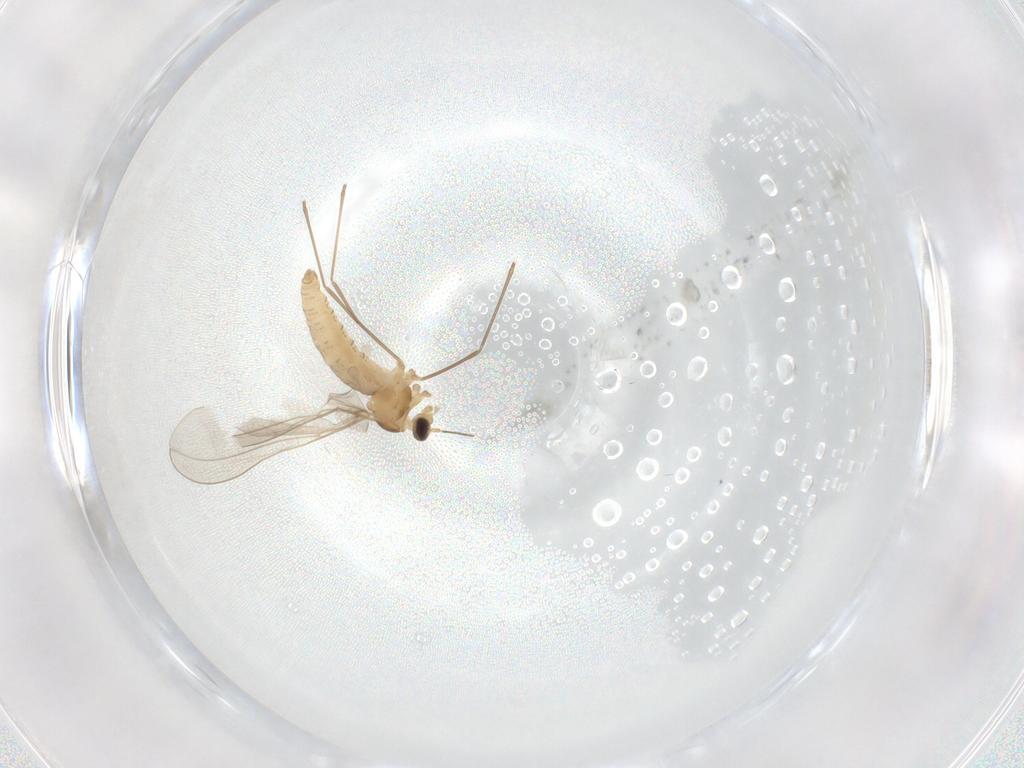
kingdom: Animalia
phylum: Arthropoda
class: Insecta
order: Diptera
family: Cecidomyiidae
